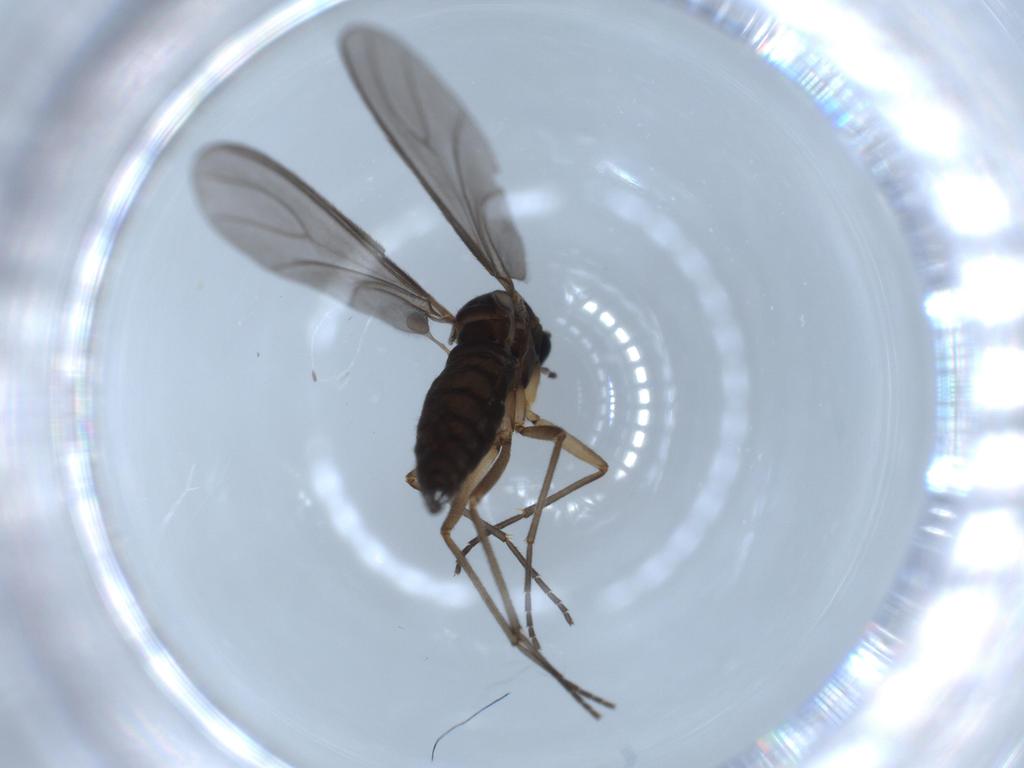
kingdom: Animalia
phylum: Arthropoda
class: Insecta
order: Diptera
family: Sciaridae
